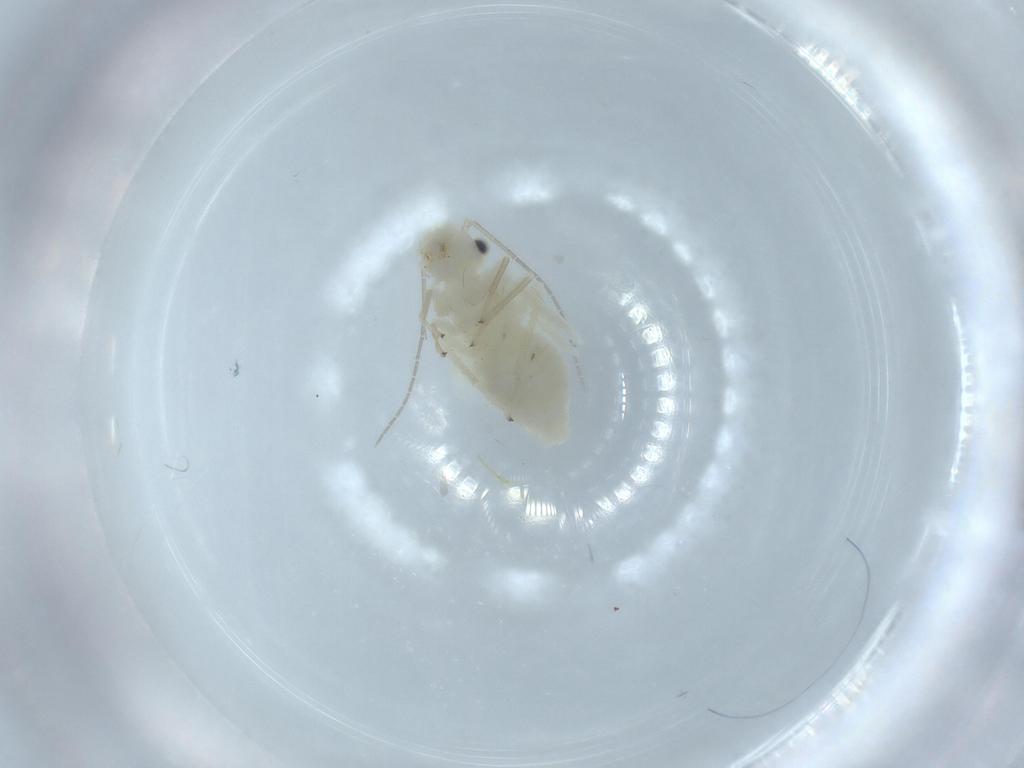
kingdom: Animalia
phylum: Arthropoda
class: Insecta
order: Psocodea
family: Caeciliusidae
